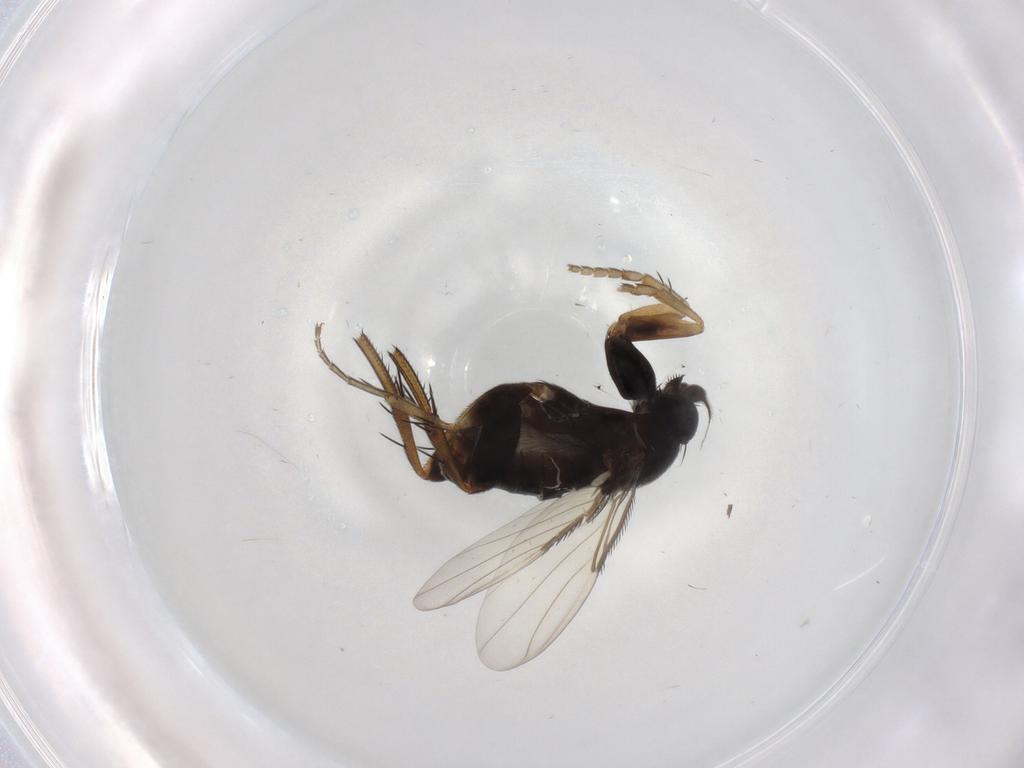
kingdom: Animalia
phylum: Arthropoda
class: Insecta
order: Diptera
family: Phoridae
